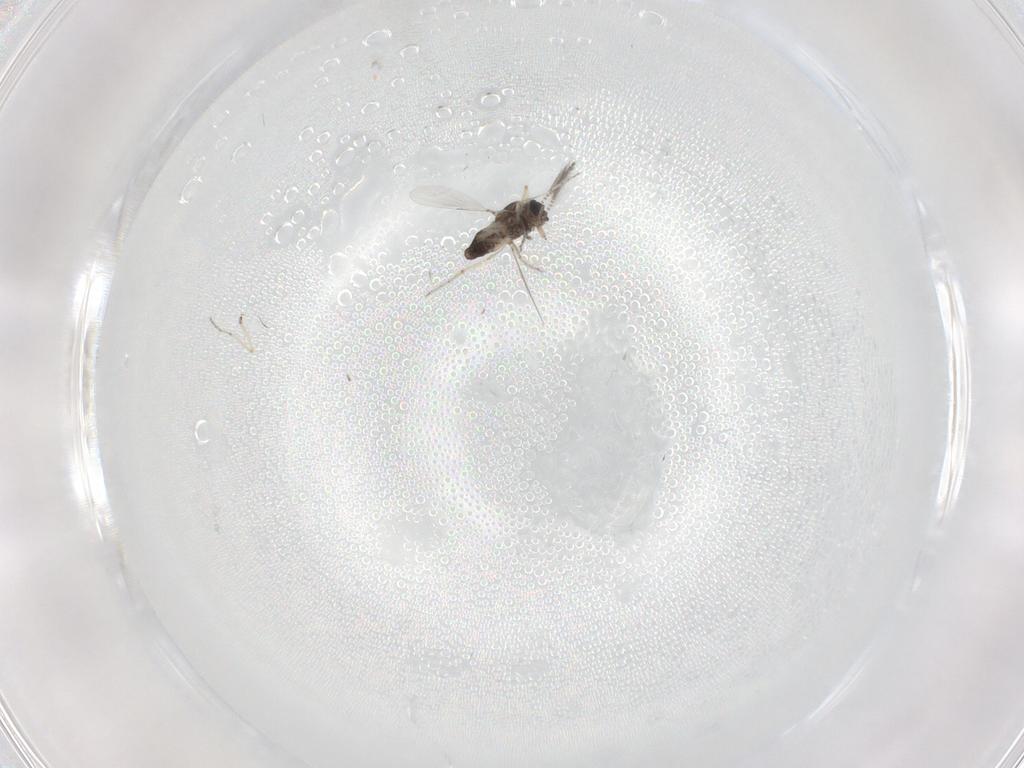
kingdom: Animalia
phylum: Arthropoda
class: Insecta
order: Diptera
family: Ceratopogonidae
